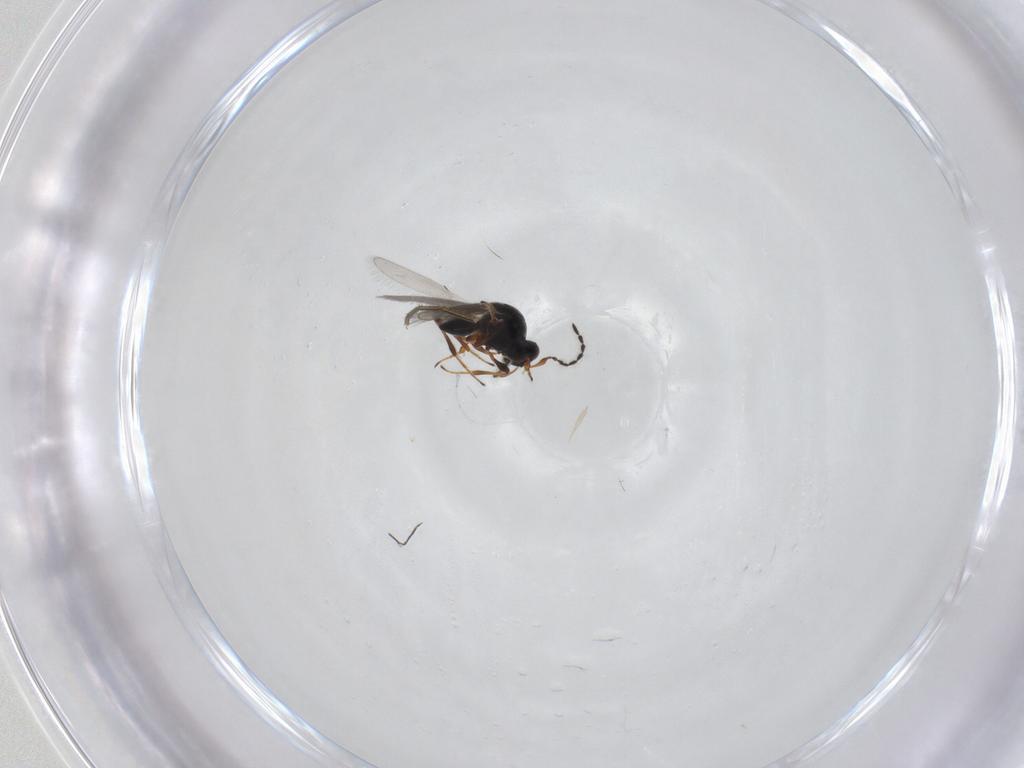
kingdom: Animalia
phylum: Arthropoda
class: Insecta
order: Hymenoptera
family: Platygastridae
